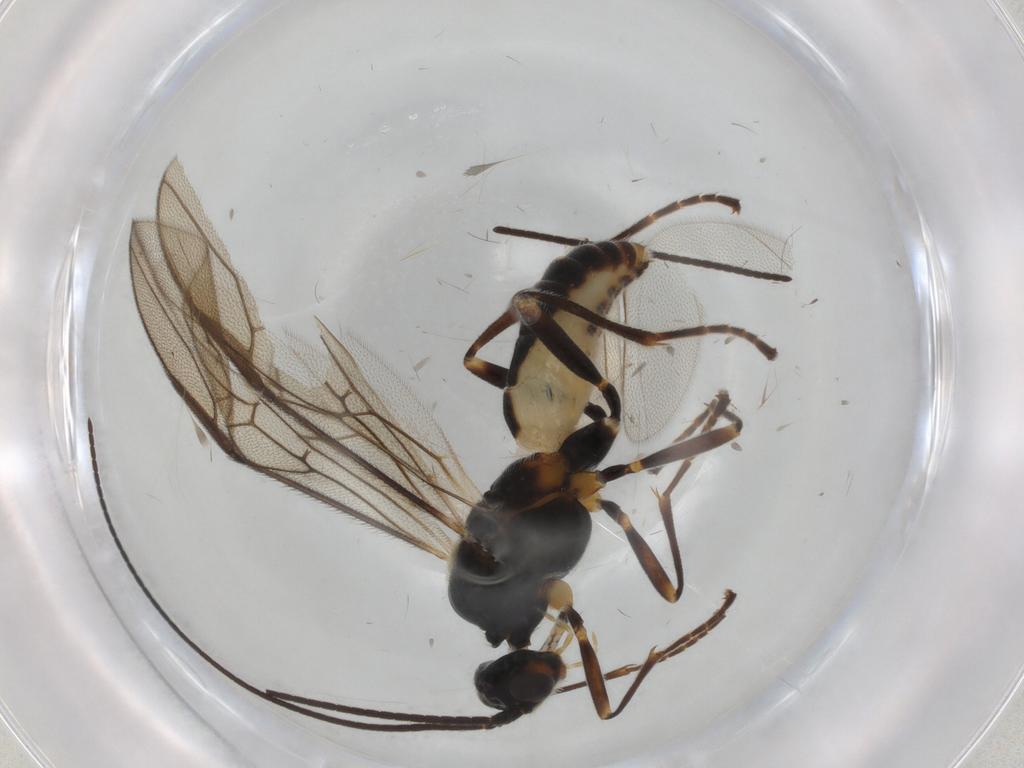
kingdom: Animalia
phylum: Arthropoda
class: Insecta
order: Hymenoptera
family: Braconidae
